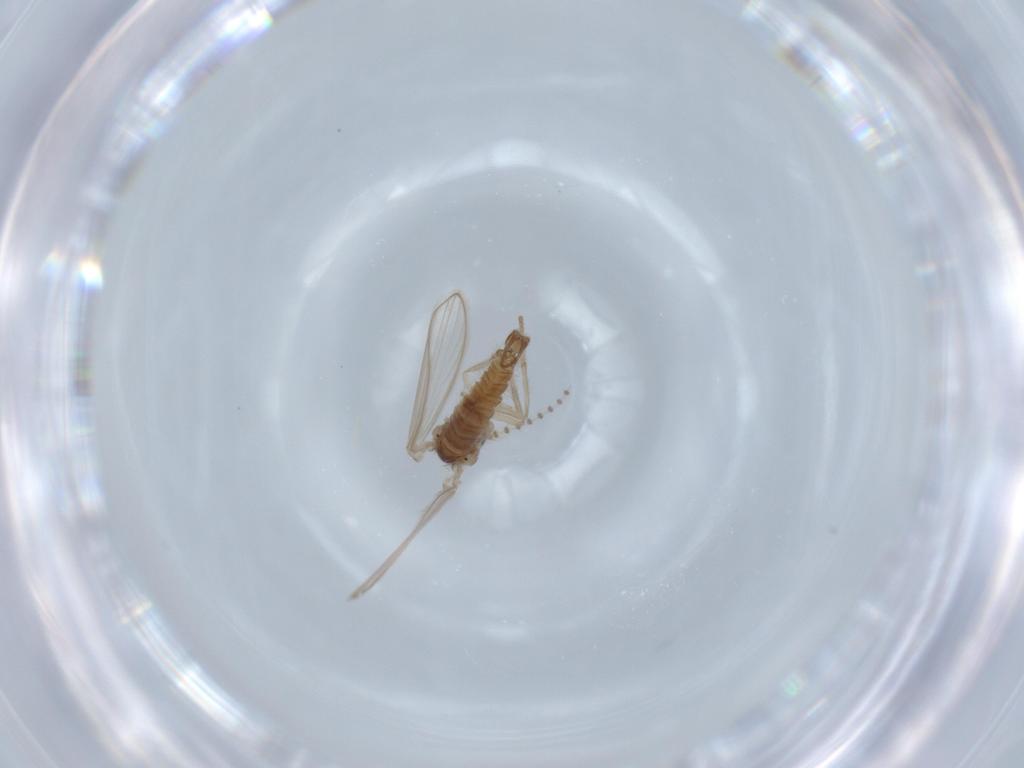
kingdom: Animalia
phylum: Arthropoda
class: Insecta
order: Diptera
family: Psychodidae
